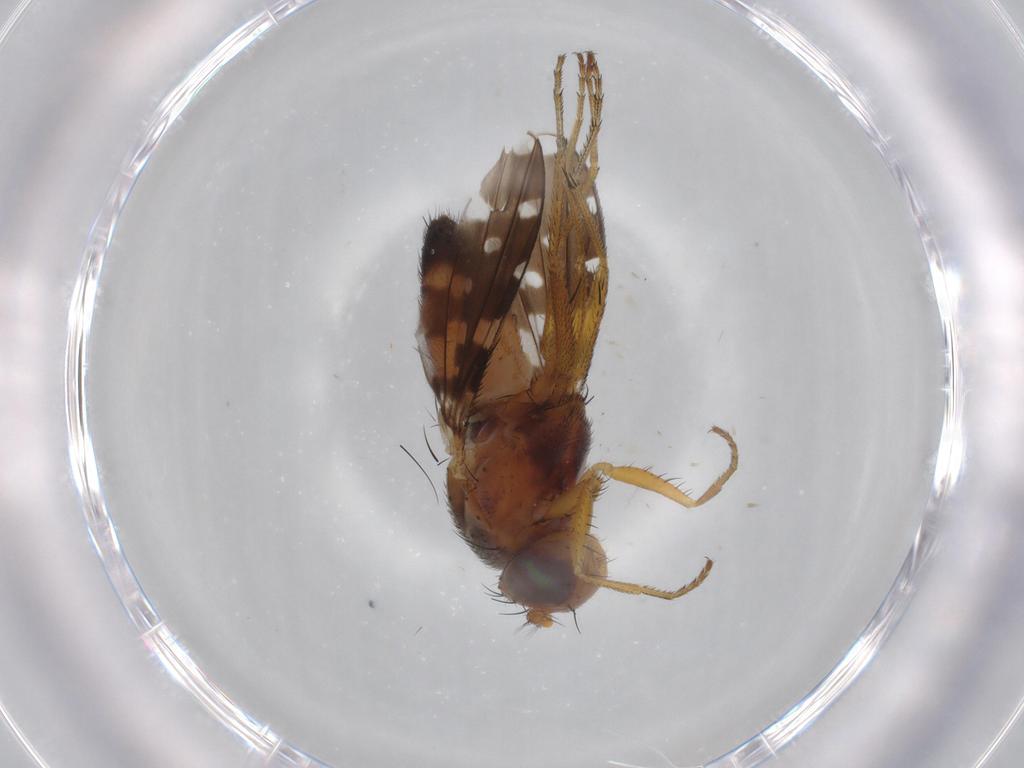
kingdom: Animalia
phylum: Arthropoda
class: Insecta
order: Diptera
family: Ephydridae
